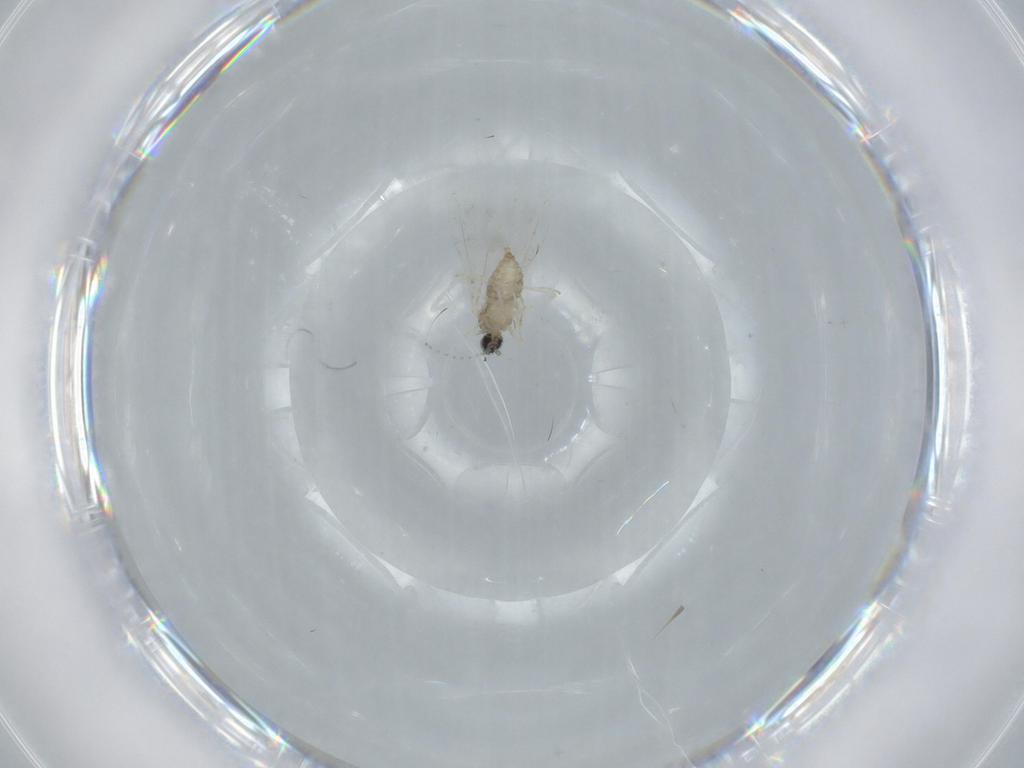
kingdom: Animalia
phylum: Arthropoda
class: Insecta
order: Diptera
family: Cecidomyiidae
